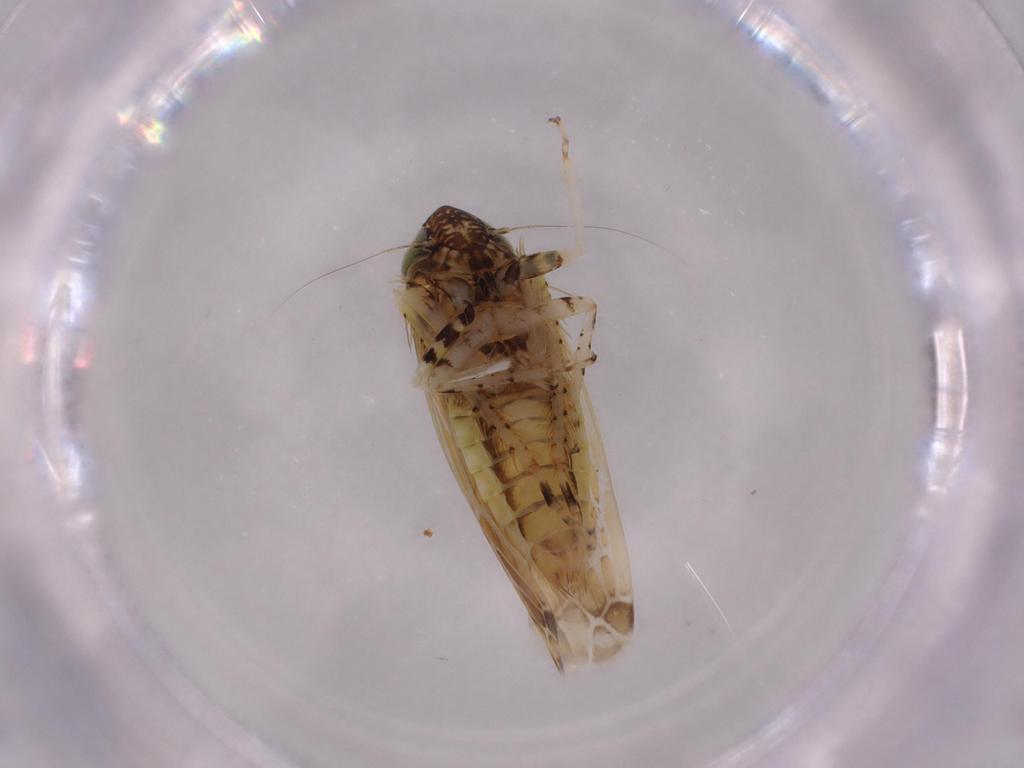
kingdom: Animalia
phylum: Arthropoda
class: Insecta
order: Hemiptera
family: Cicadellidae
